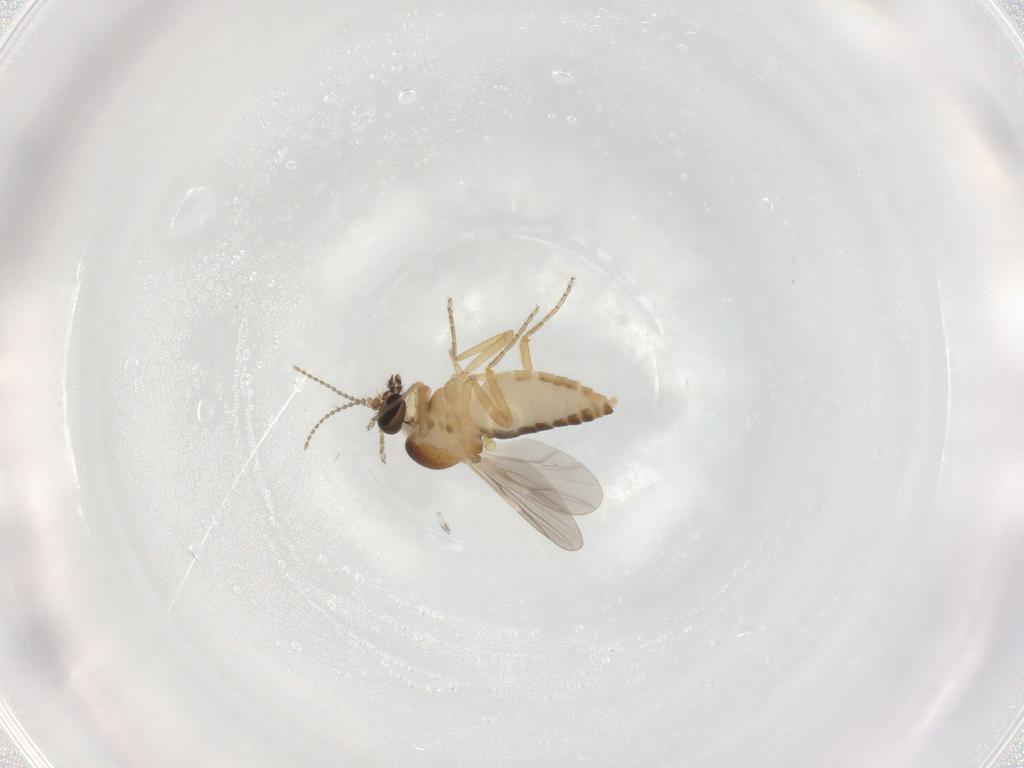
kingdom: Animalia
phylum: Arthropoda
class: Insecta
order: Diptera
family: Ceratopogonidae
